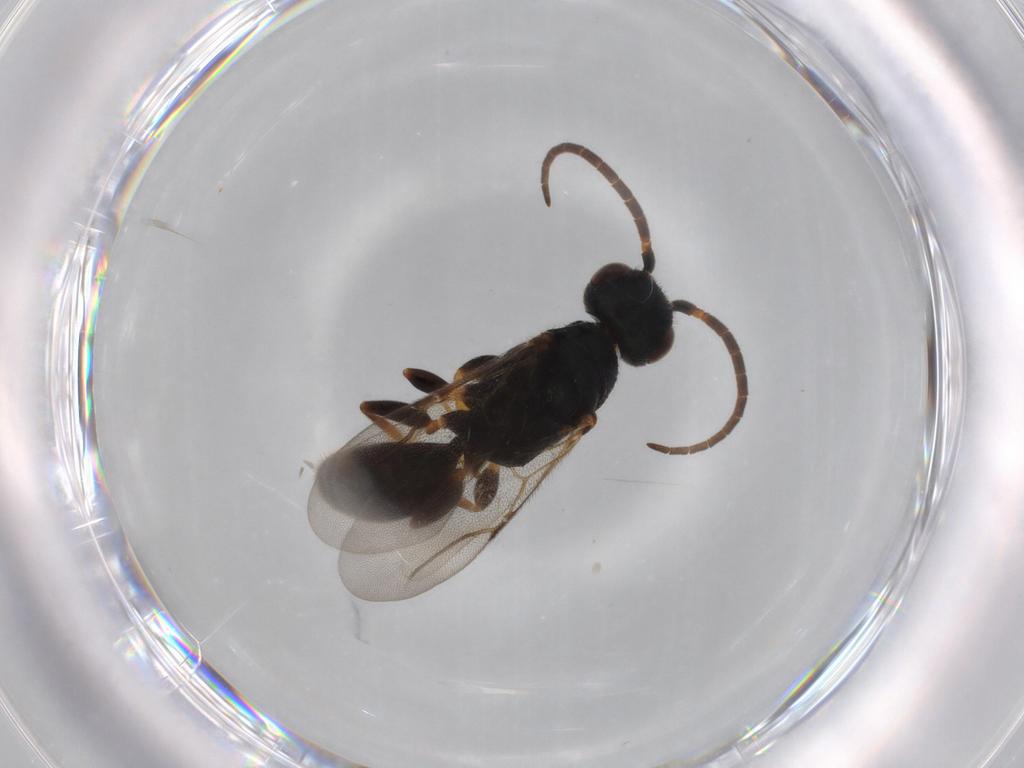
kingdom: Animalia
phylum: Arthropoda
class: Insecta
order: Hymenoptera
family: Bethylidae
